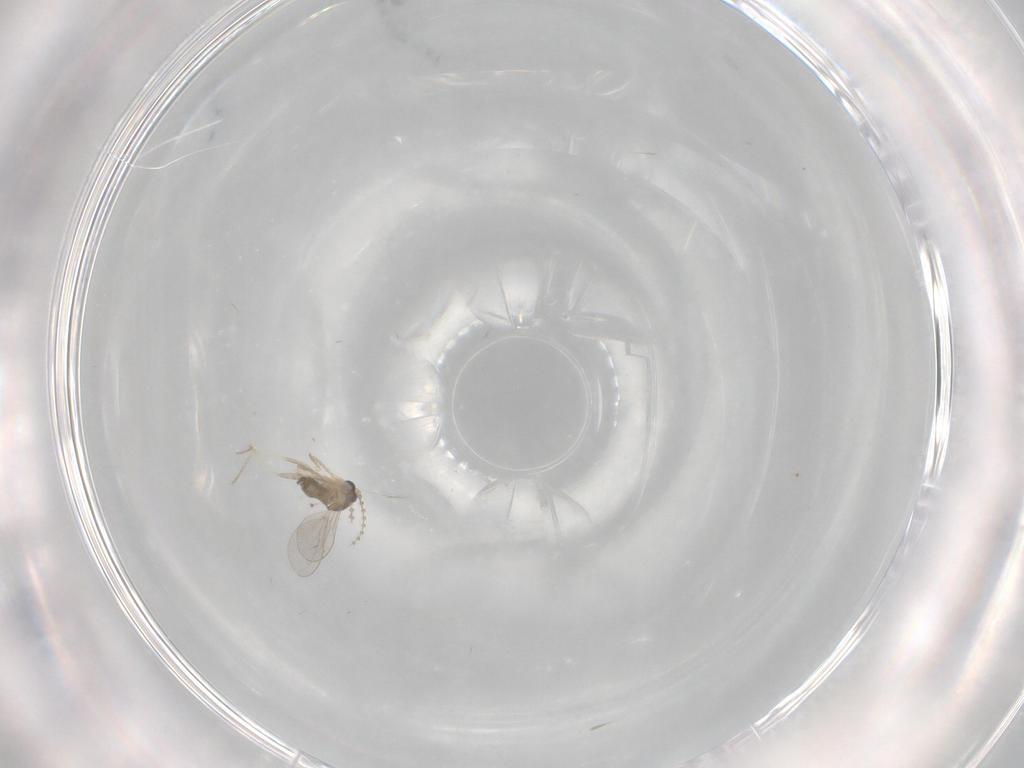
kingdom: Animalia
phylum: Arthropoda
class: Insecta
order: Diptera
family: Cecidomyiidae
